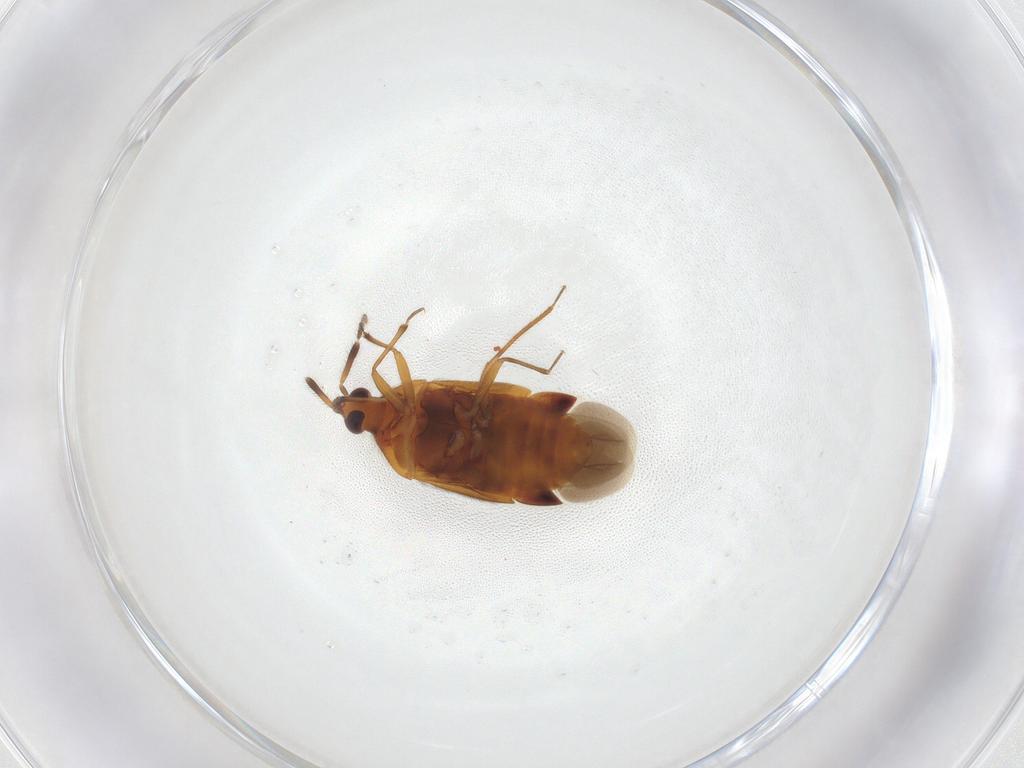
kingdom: Animalia
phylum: Arthropoda
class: Insecta
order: Hemiptera
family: Anthocoridae
